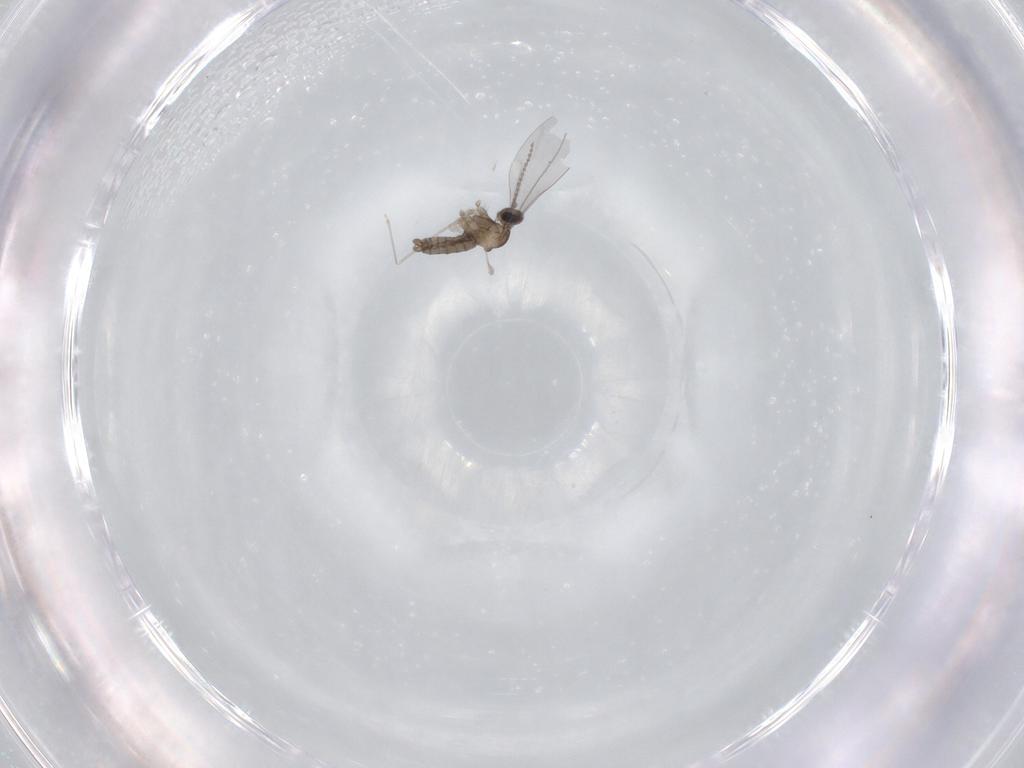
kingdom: Animalia
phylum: Arthropoda
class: Insecta
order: Diptera
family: Cecidomyiidae
